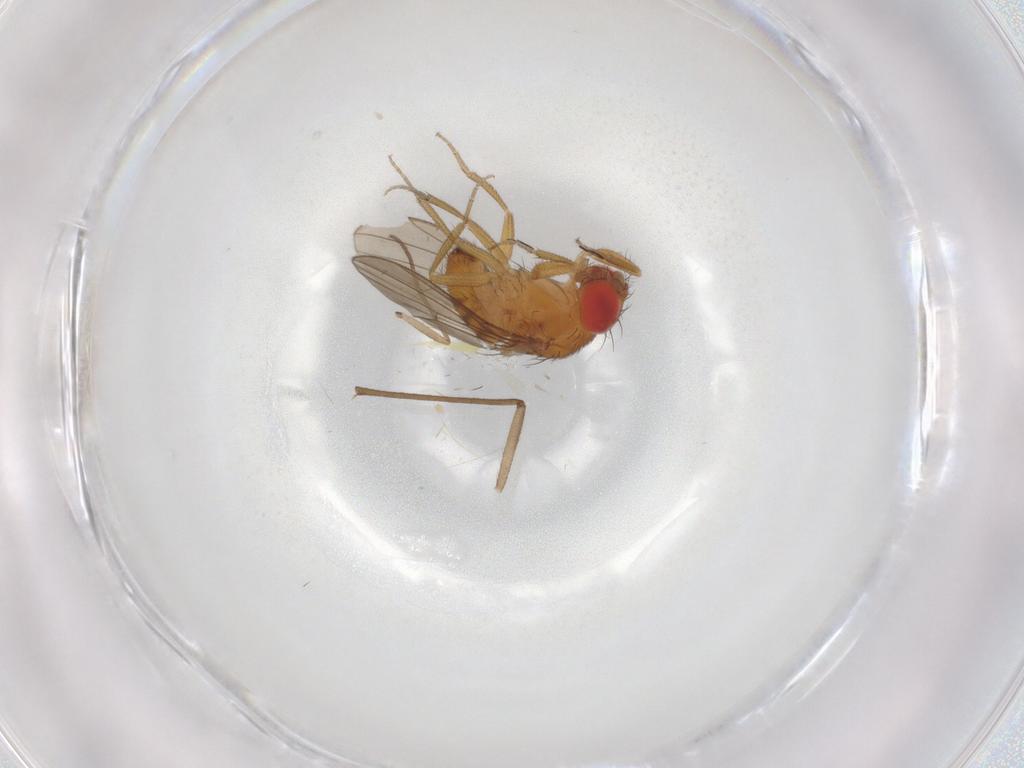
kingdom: Animalia
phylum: Arthropoda
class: Insecta
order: Diptera
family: Drosophilidae
